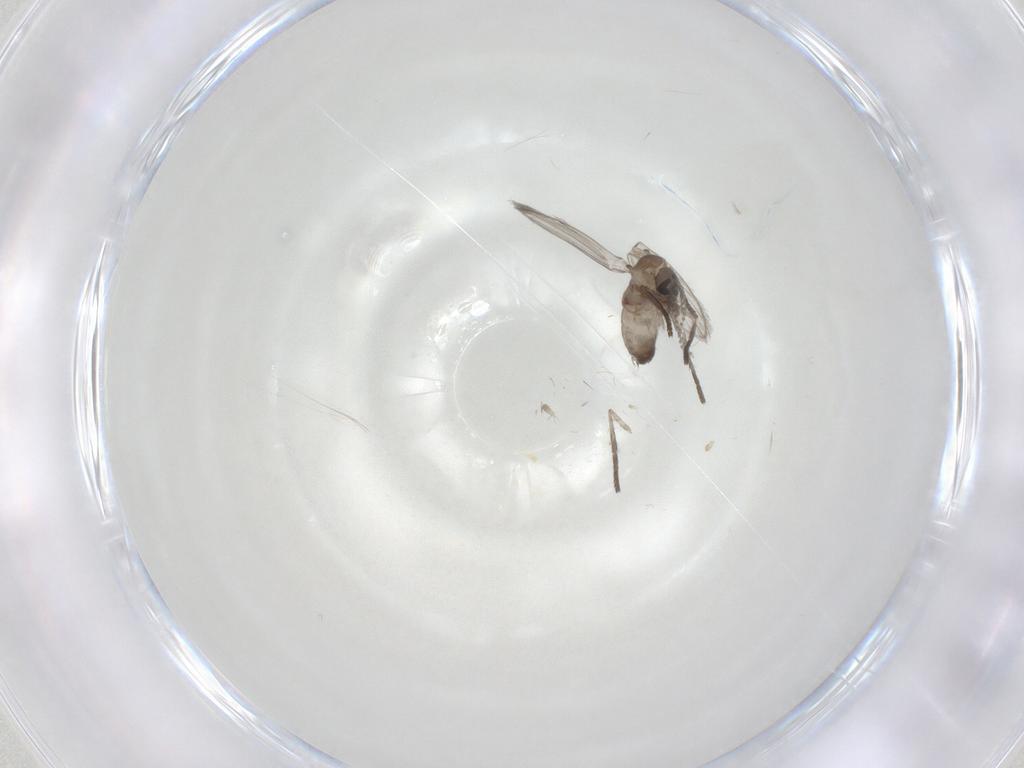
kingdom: Animalia
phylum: Arthropoda
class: Insecta
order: Diptera
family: Psychodidae
